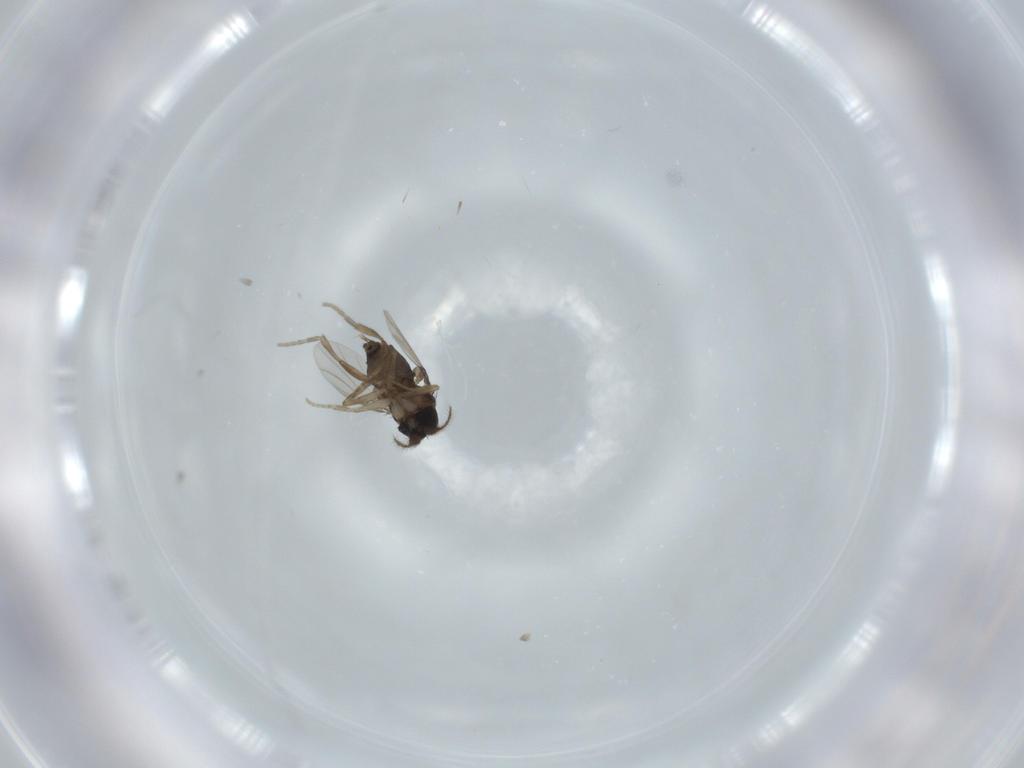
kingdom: Animalia
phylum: Arthropoda
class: Insecta
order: Diptera
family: Phoridae
